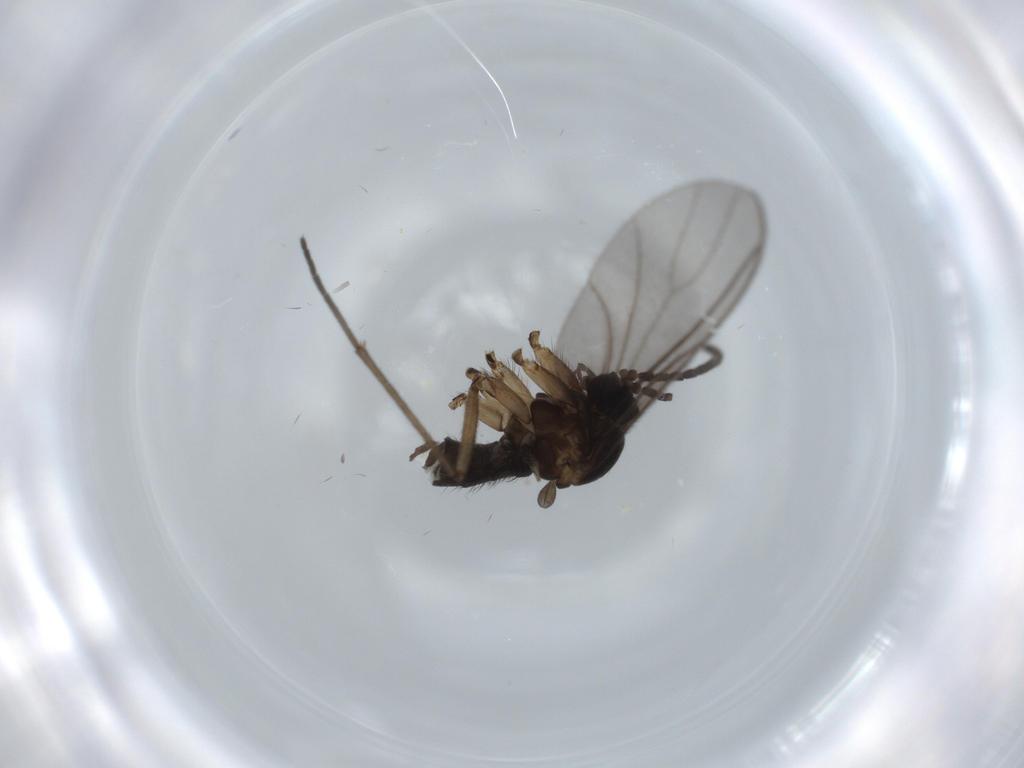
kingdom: Animalia
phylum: Arthropoda
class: Insecta
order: Diptera
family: Sciaridae
